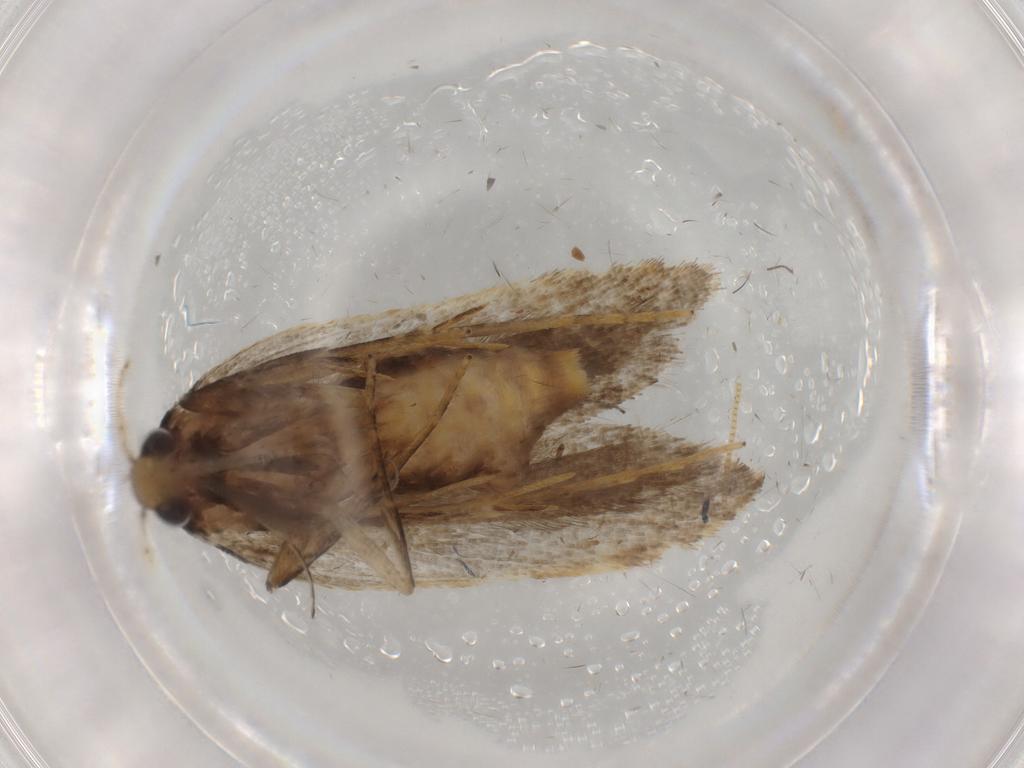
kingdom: Animalia
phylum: Arthropoda
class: Insecta
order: Lepidoptera
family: Gelechiidae
